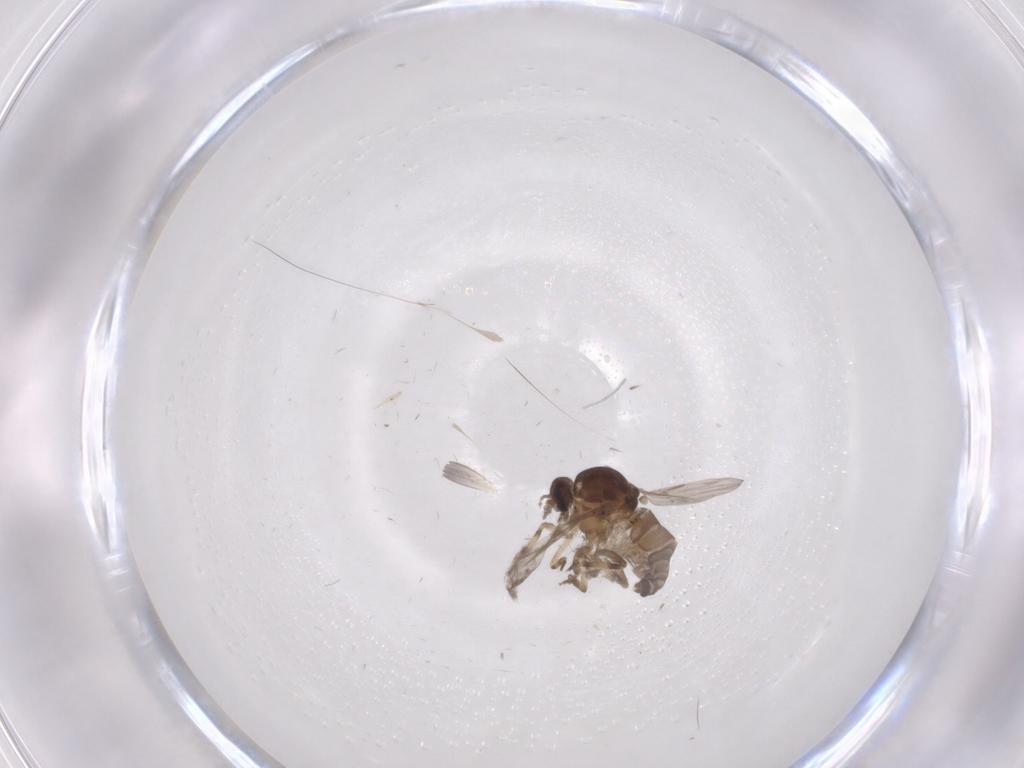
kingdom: Animalia
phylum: Arthropoda
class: Insecta
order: Diptera
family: Ceratopogonidae
